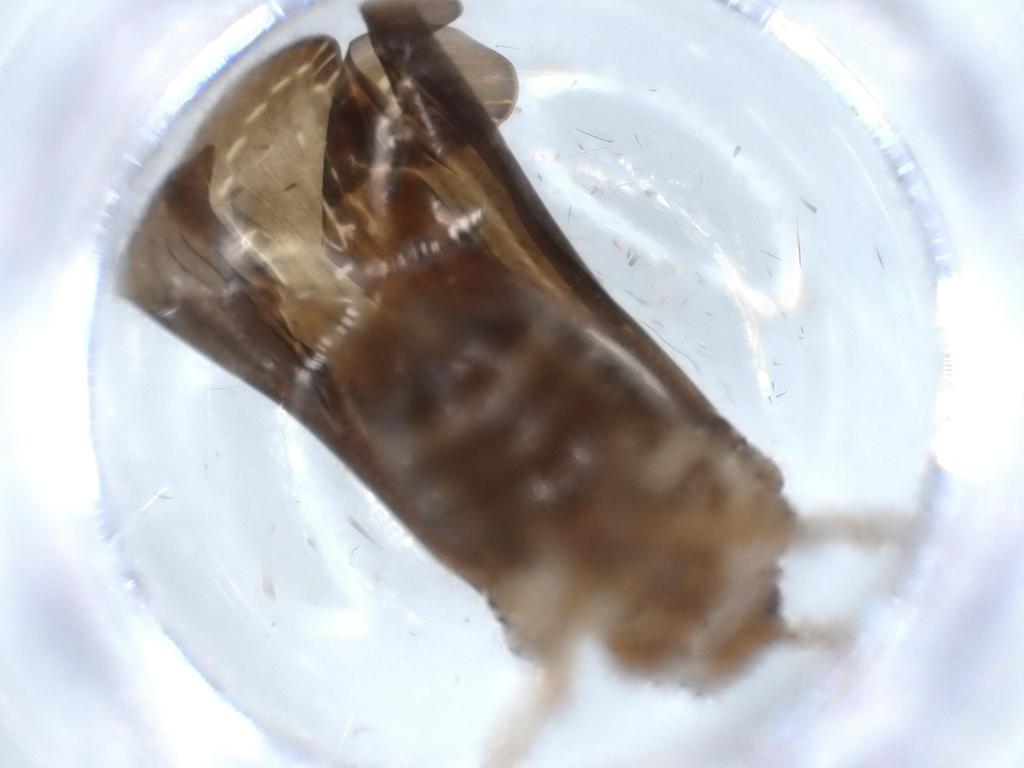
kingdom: Animalia
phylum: Arthropoda
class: Insecta
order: Hemiptera
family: Achilidae
